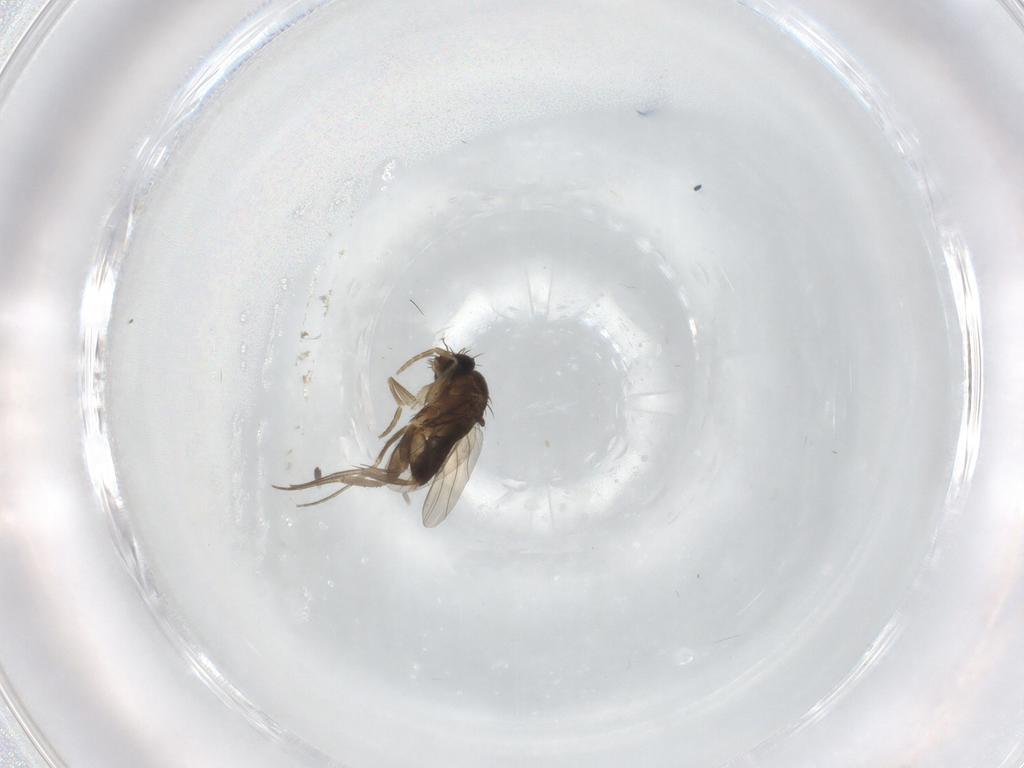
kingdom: Animalia
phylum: Arthropoda
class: Insecta
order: Diptera
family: Limoniidae
